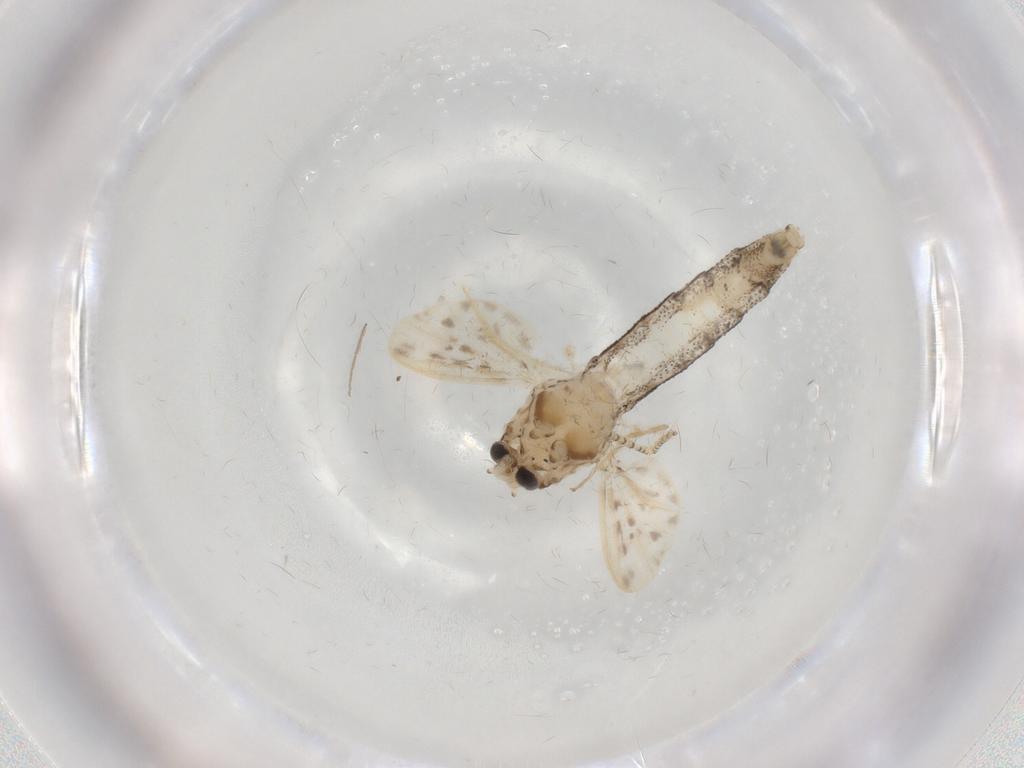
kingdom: Animalia
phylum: Arthropoda
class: Insecta
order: Diptera
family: Chaoboridae
